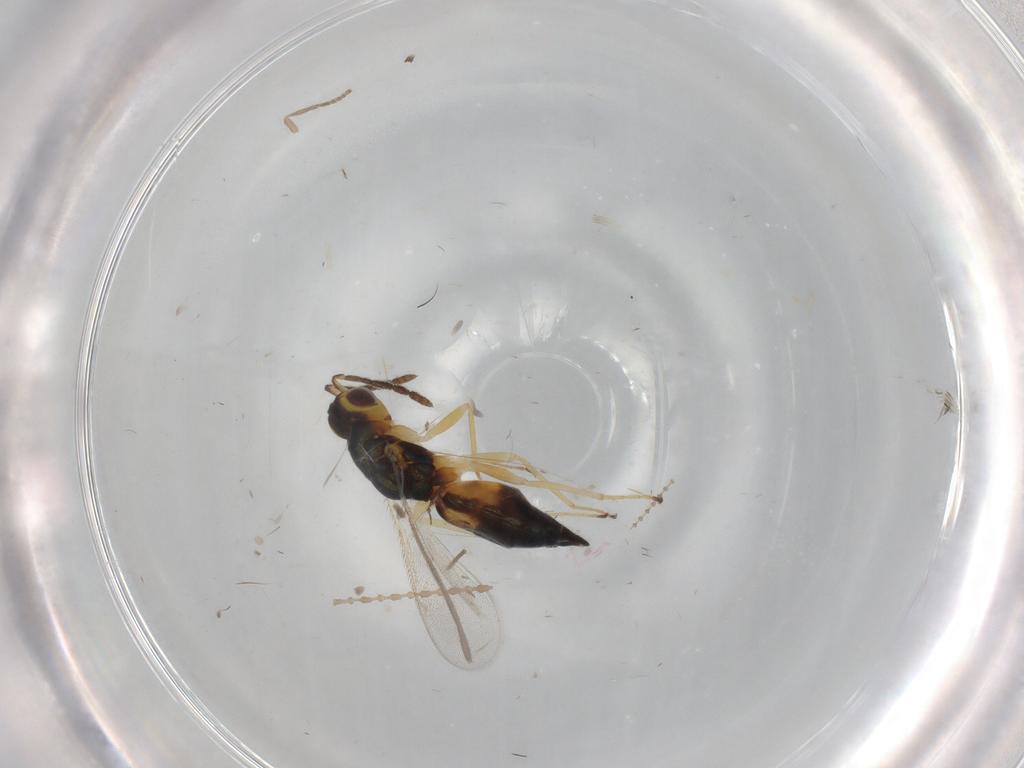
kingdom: Animalia
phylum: Arthropoda
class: Insecta
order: Hymenoptera
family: Eulophidae
